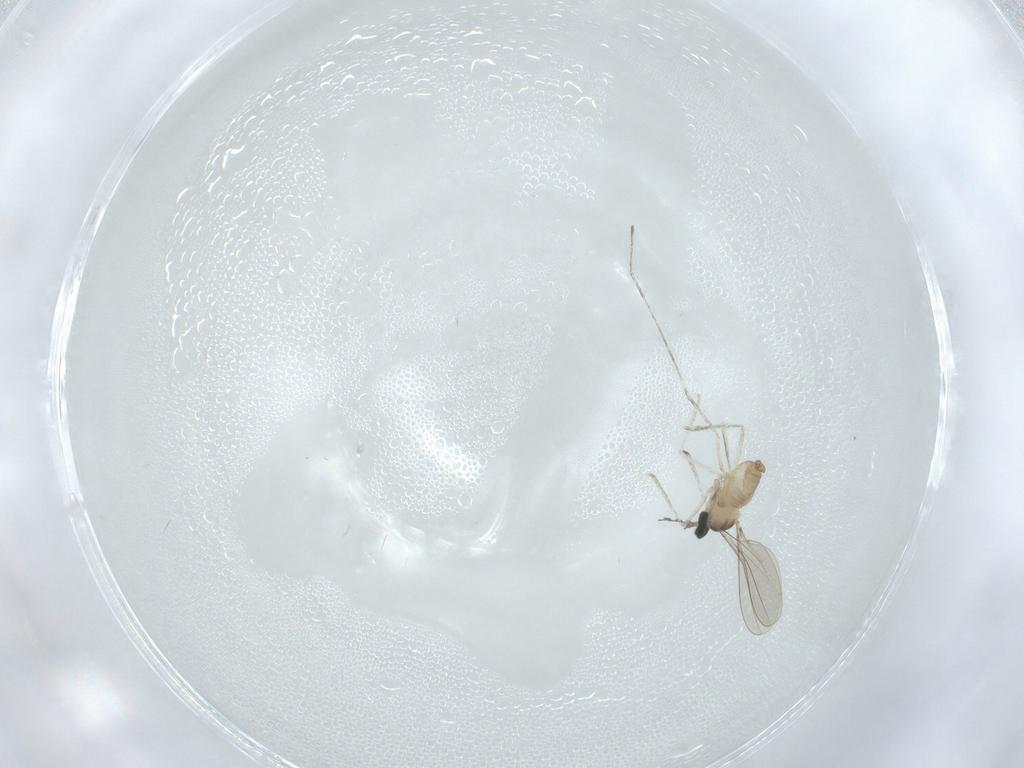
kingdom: Animalia
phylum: Arthropoda
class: Insecta
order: Diptera
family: Cecidomyiidae
